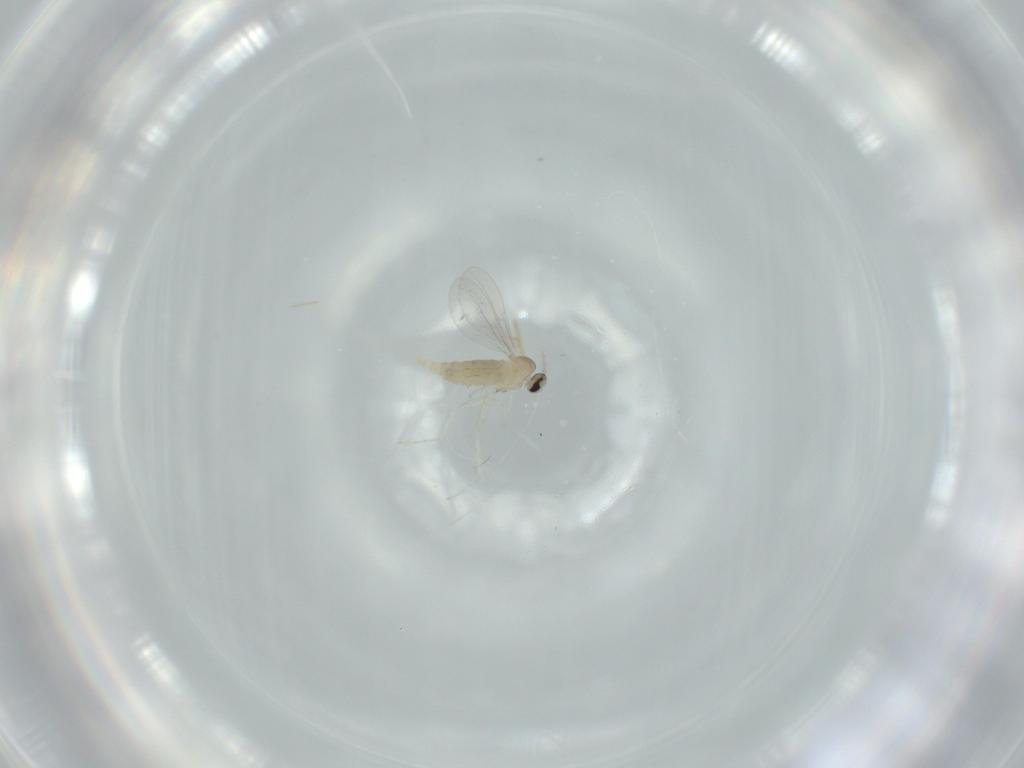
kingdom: Animalia
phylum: Arthropoda
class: Insecta
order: Diptera
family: Cecidomyiidae
